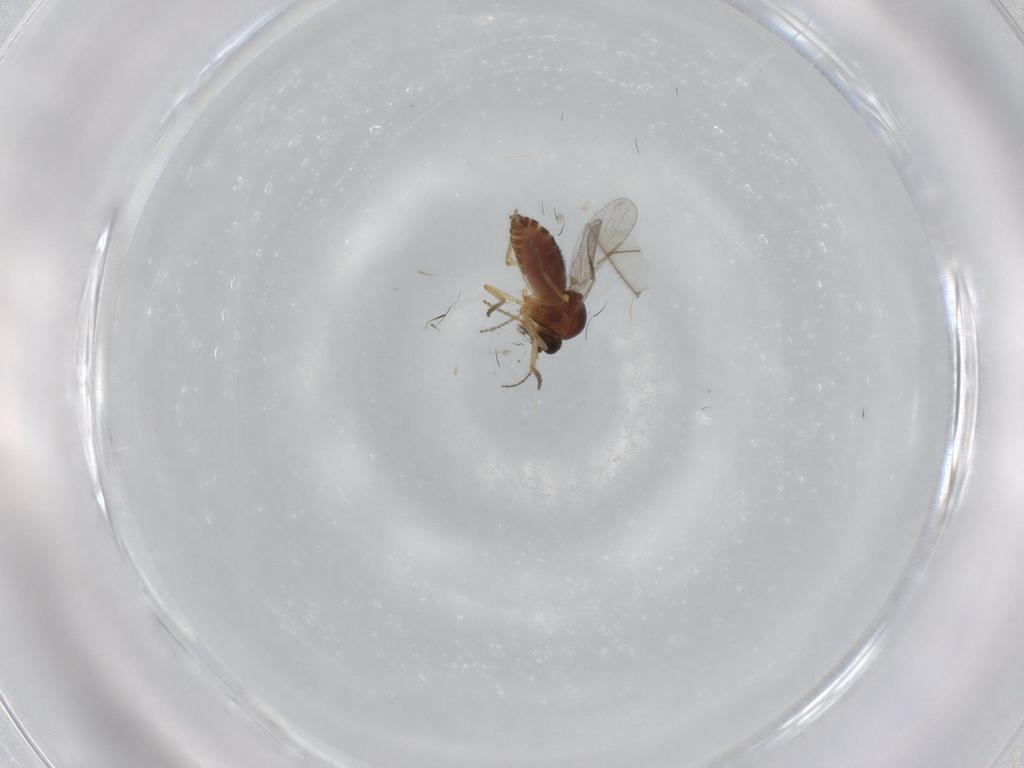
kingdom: Animalia
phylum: Arthropoda
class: Insecta
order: Diptera
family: Ceratopogonidae
